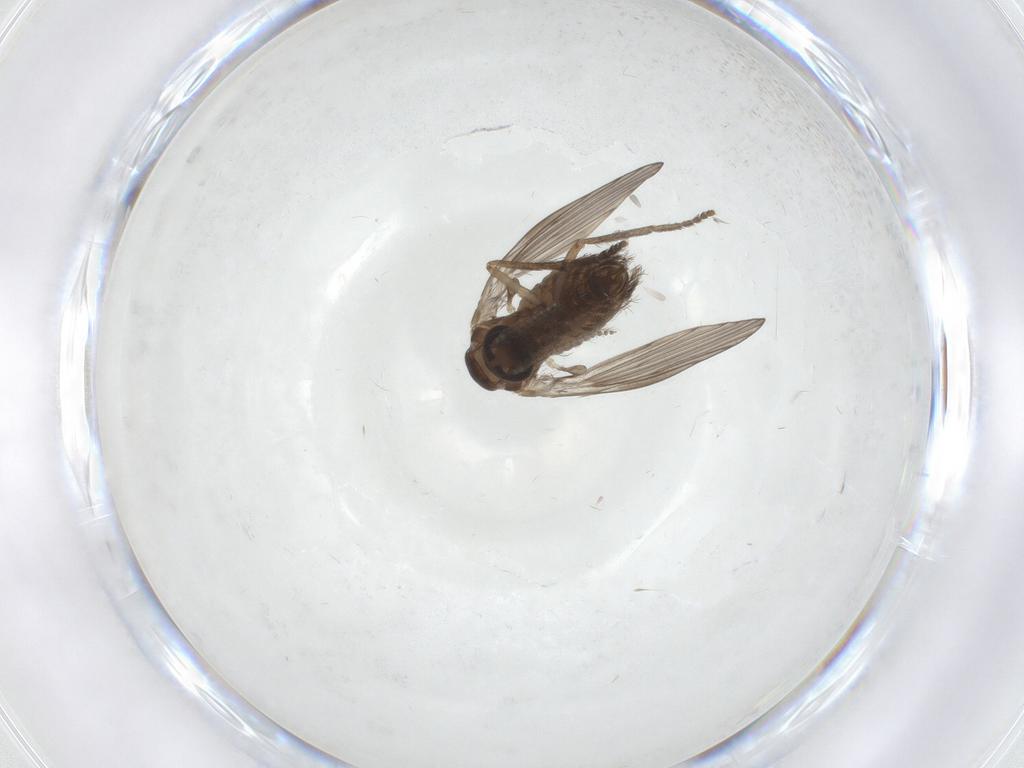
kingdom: Animalia
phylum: Arthropoda
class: Insecta
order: Diptera
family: Psychodidae
